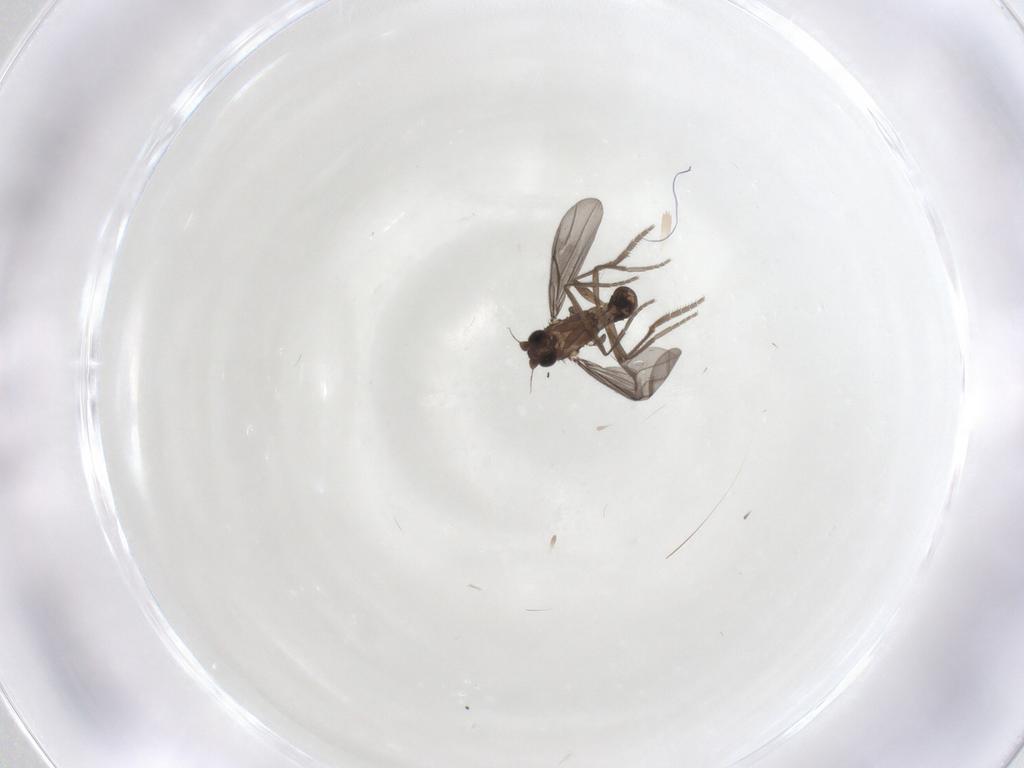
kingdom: Animalia
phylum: Arthropoda
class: Insecta
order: Diptera
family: Phoridae
